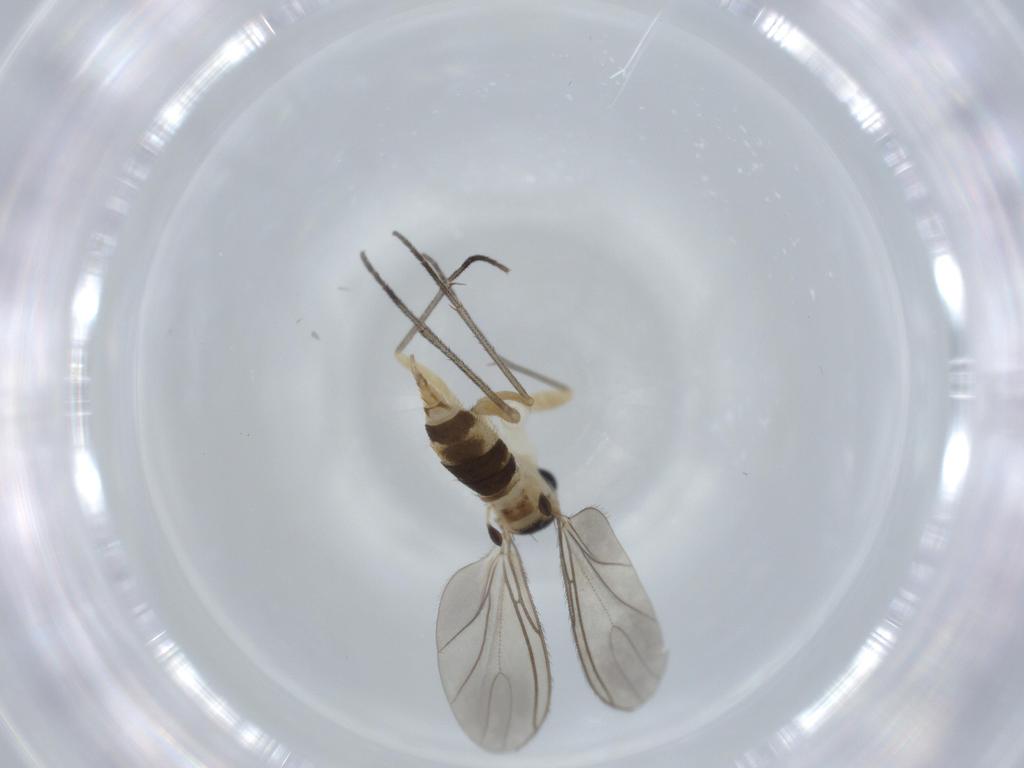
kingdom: Animalia
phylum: Arthropoda
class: Insecta
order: Diptera
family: Sciaridae
